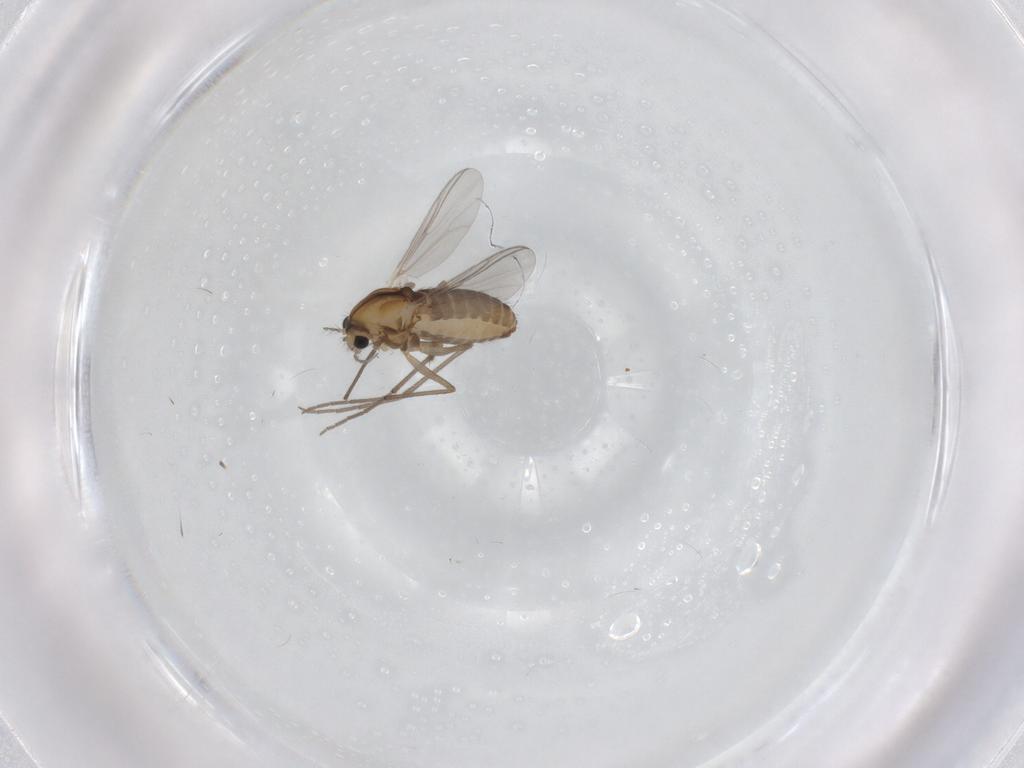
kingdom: Animalia
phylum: Arthropoda
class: Insecta
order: Diptera
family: Chironomidae
